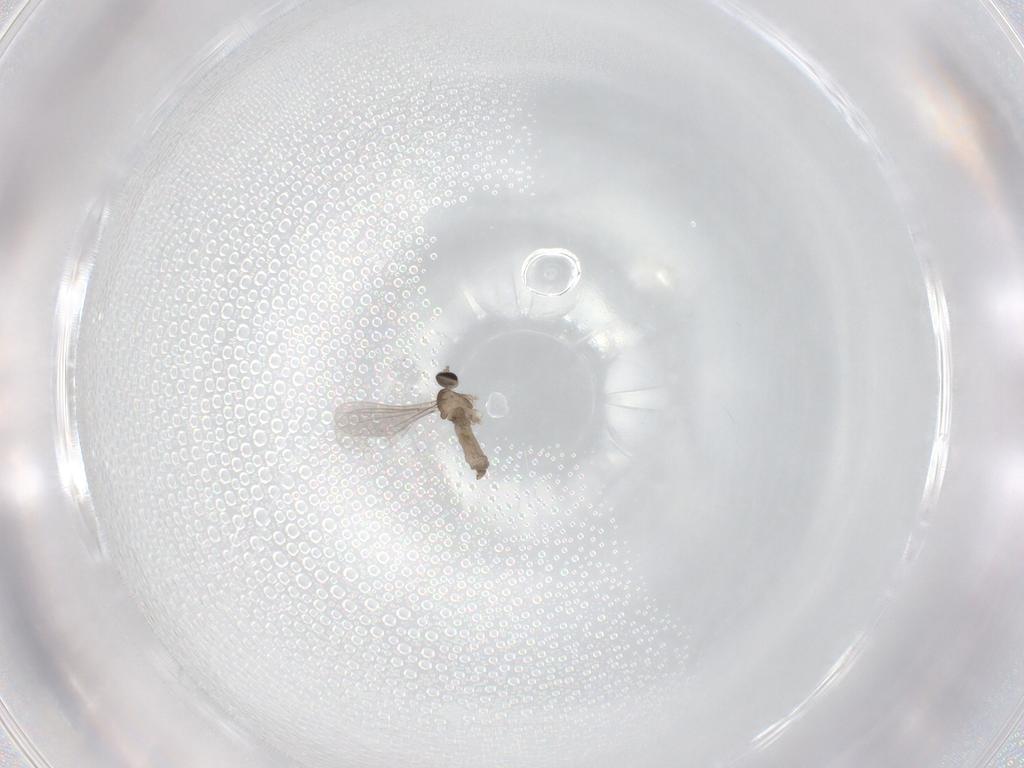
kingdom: Animalia
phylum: Arthropoda
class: Insecta
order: Diptera
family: Cecidomyiidae
